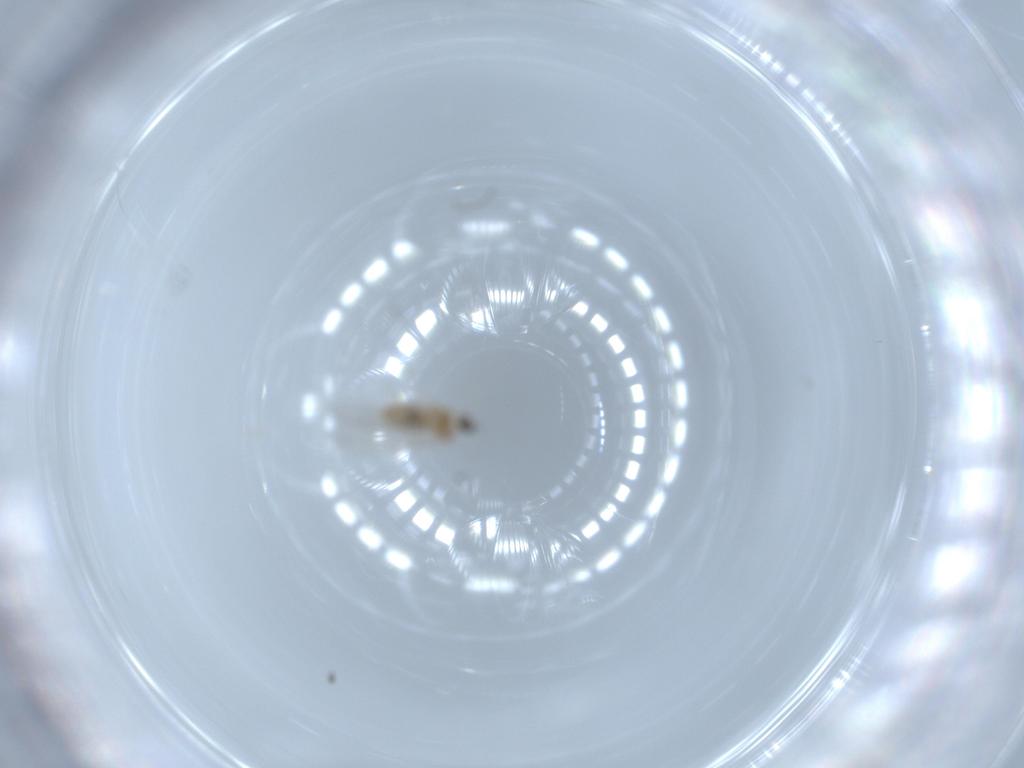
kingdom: Animalia
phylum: Arthropoda
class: Insecta
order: Diptera
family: Cecidomyiidae
